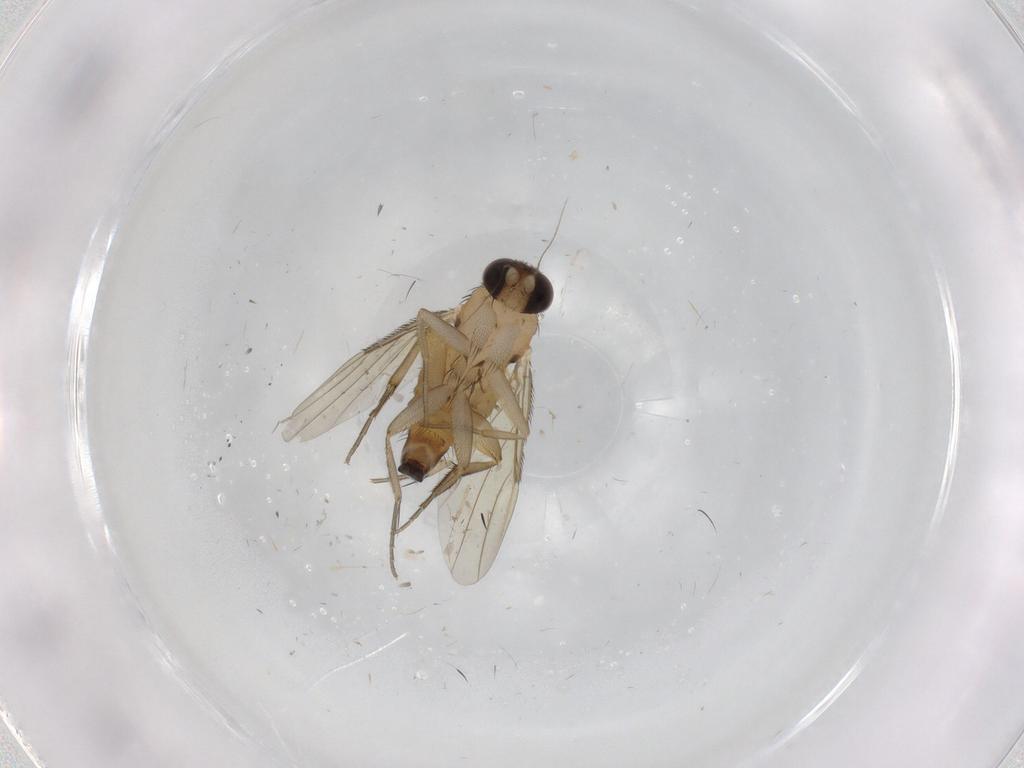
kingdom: Animalia
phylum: Arthropoda
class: Insecta
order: Diptera
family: Phoridae
